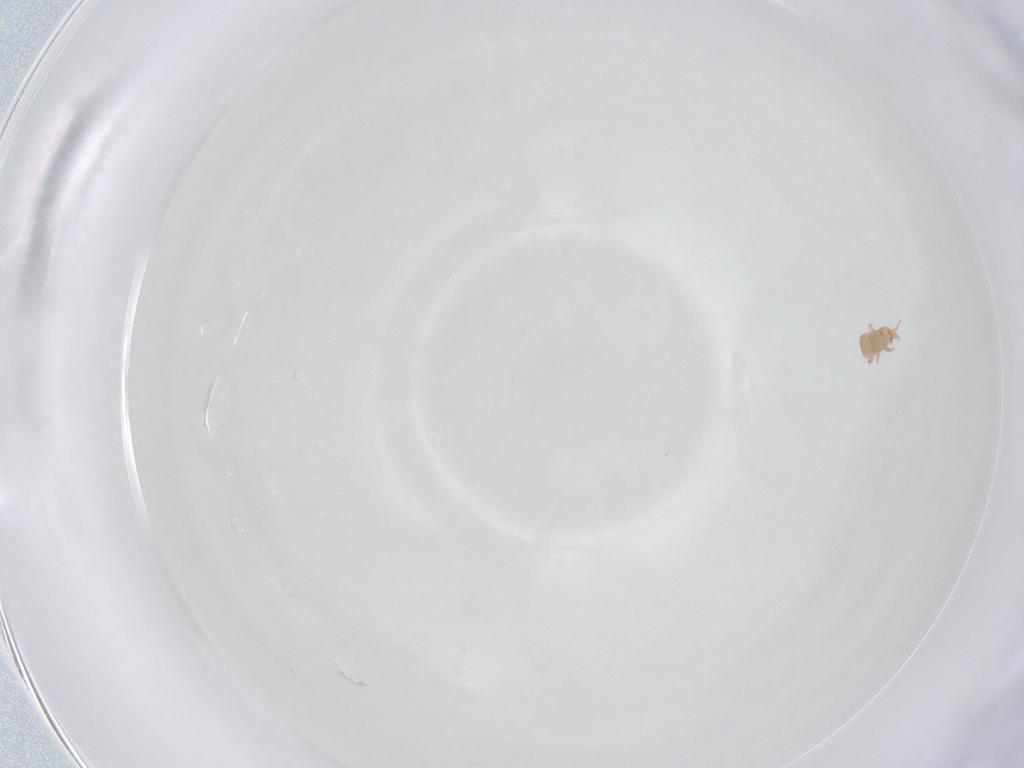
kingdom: Animalia
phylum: Arthropoda
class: Arachnida
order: Mesostigmata
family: Digamasellidae
